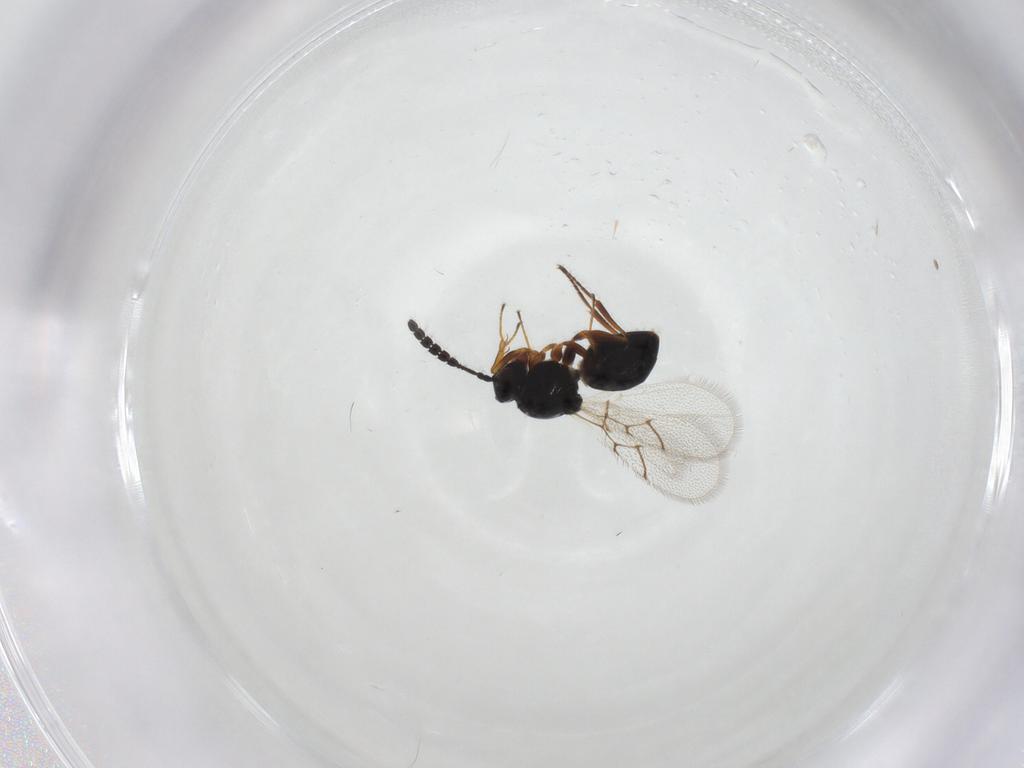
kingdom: Animalia
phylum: Arthropoda
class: Insecta
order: Hymenoptera
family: Figitidae
